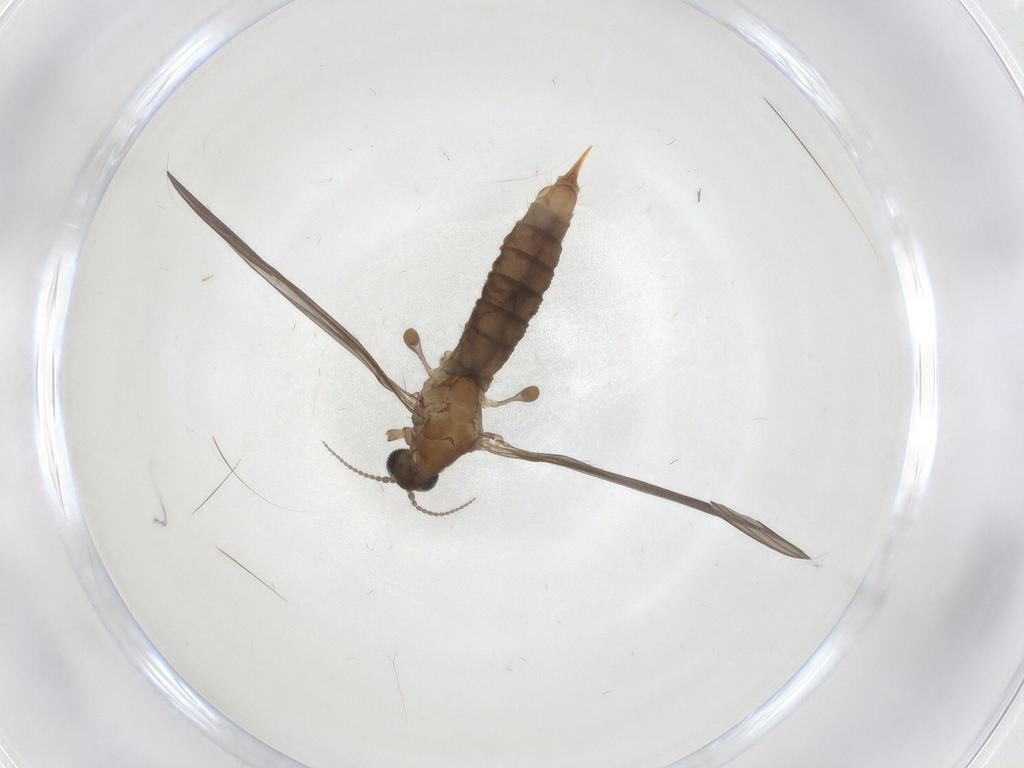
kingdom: Animalia
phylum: Arthropoda
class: Insecta
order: Diptera
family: Limoniidae
